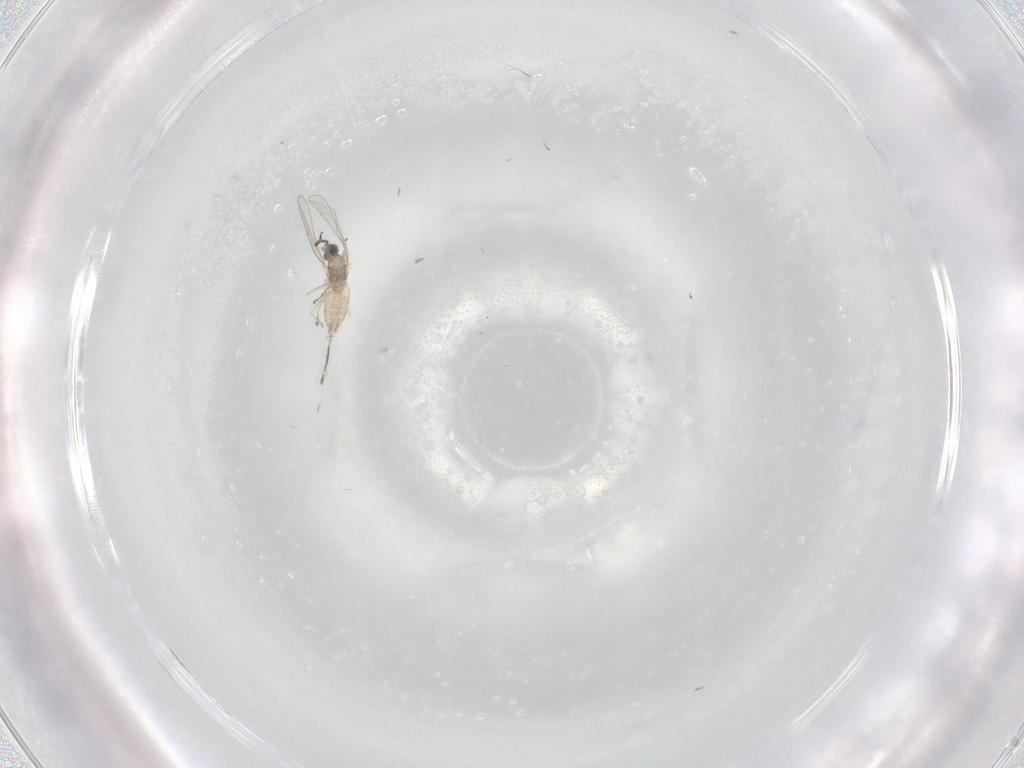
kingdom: Animalia
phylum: Arthropoda
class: Insecta
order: Diptera
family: Cecidomyiidae
